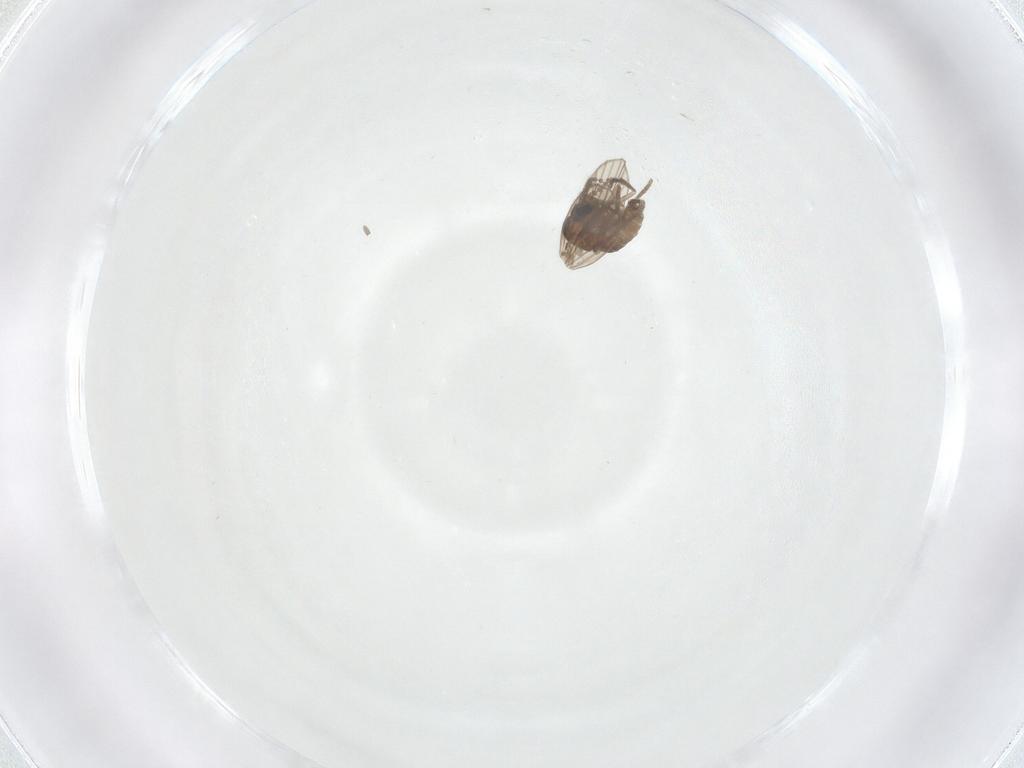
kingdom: Animalia
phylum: Arthropoda
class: Insecta
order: Diptera
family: Psychodidae
